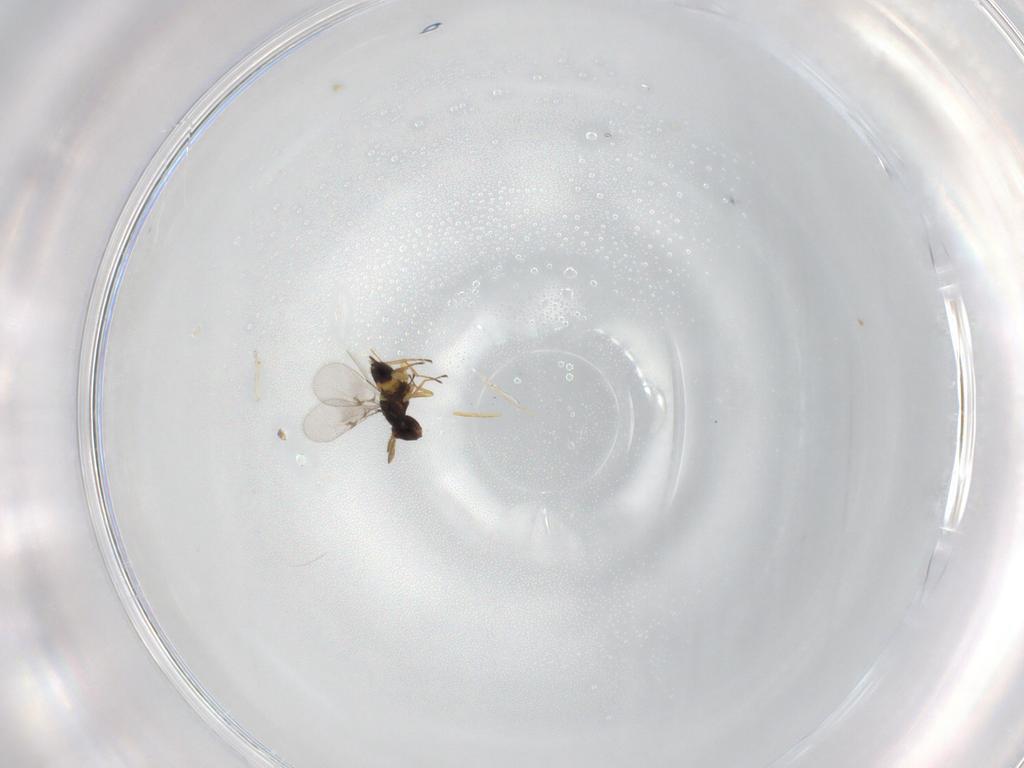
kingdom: Animalia
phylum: Arthropoda
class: Insecta
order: Hymenoptera
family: Eulophidae
